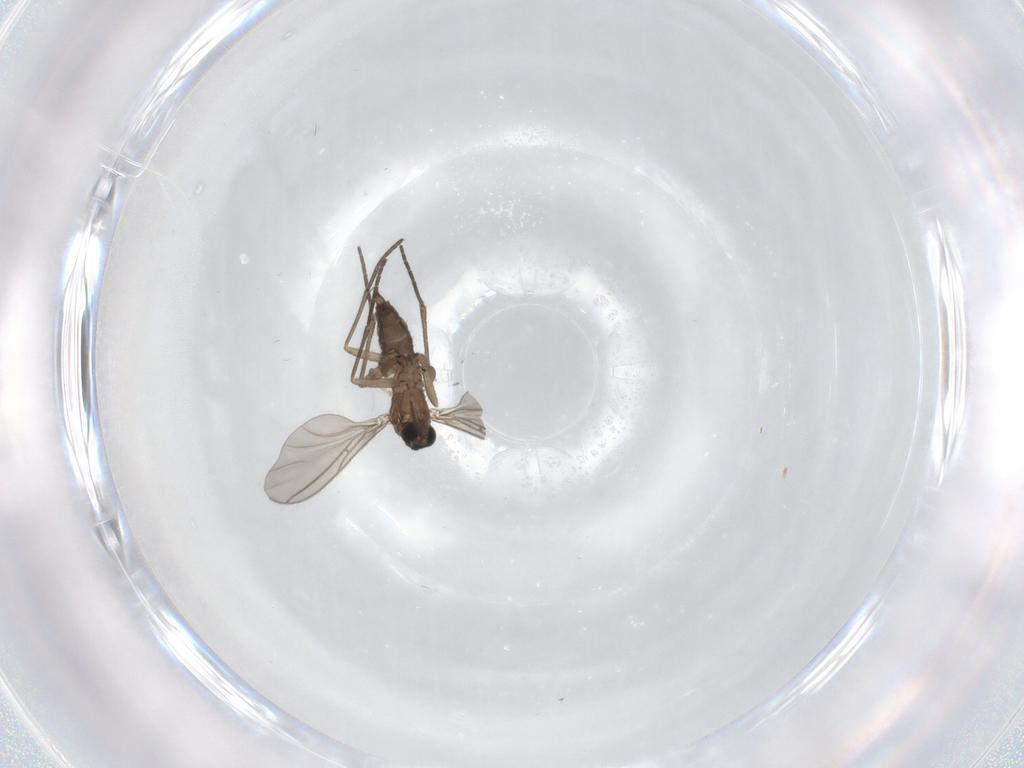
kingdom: Animalia
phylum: Arthropoda
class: Insecta
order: Diptera
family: Sciaridae
